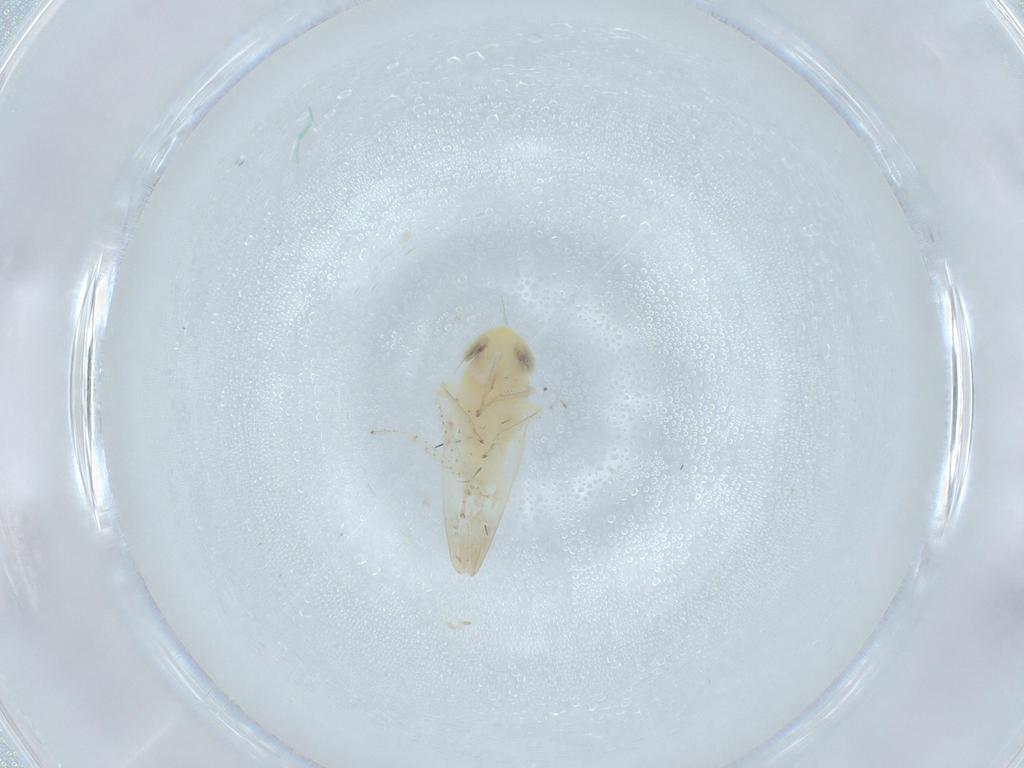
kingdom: Animalia
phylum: Arthropoda
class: Insecta
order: Hemiptera
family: Cicadellidae
